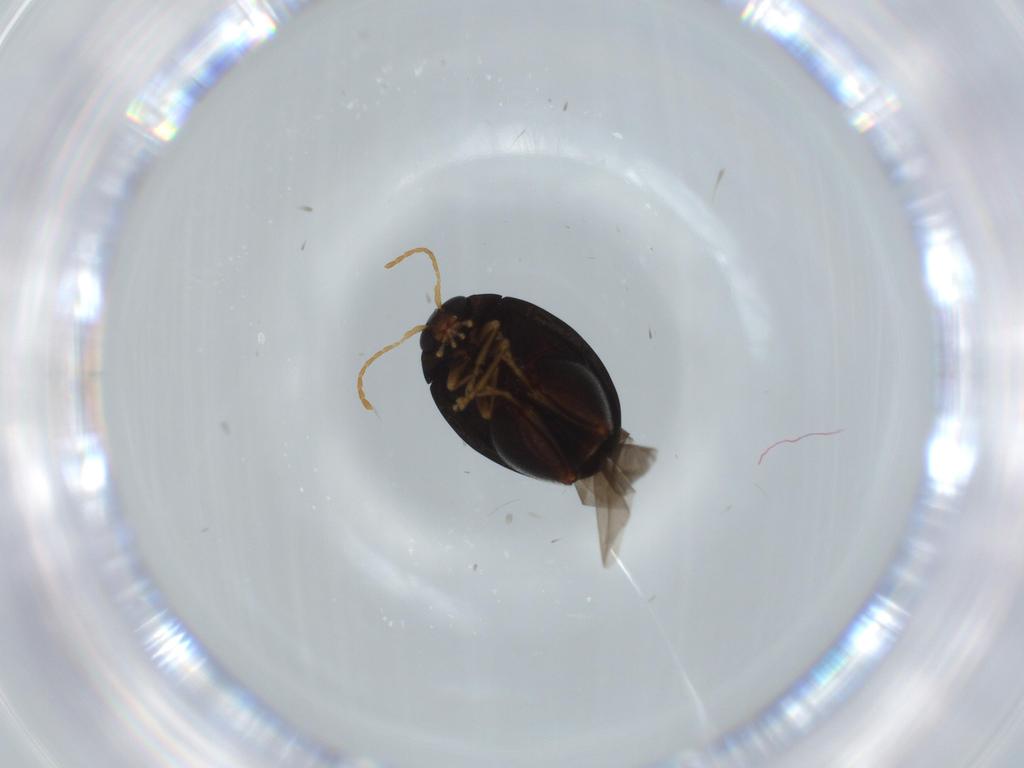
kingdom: Animalia
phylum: Arthropoda
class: Insecta
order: Coleoptera
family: Chrysomelidae
